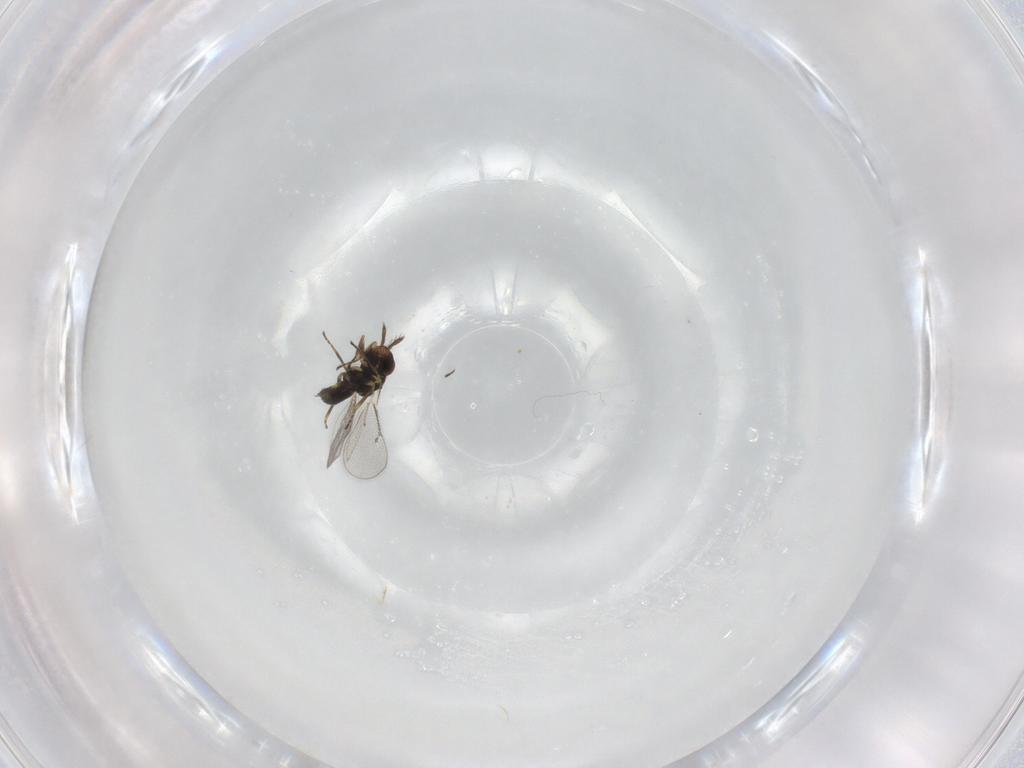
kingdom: Animalia
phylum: Arthropoda
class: Insecta
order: Hymenoptera
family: Eulophidae
